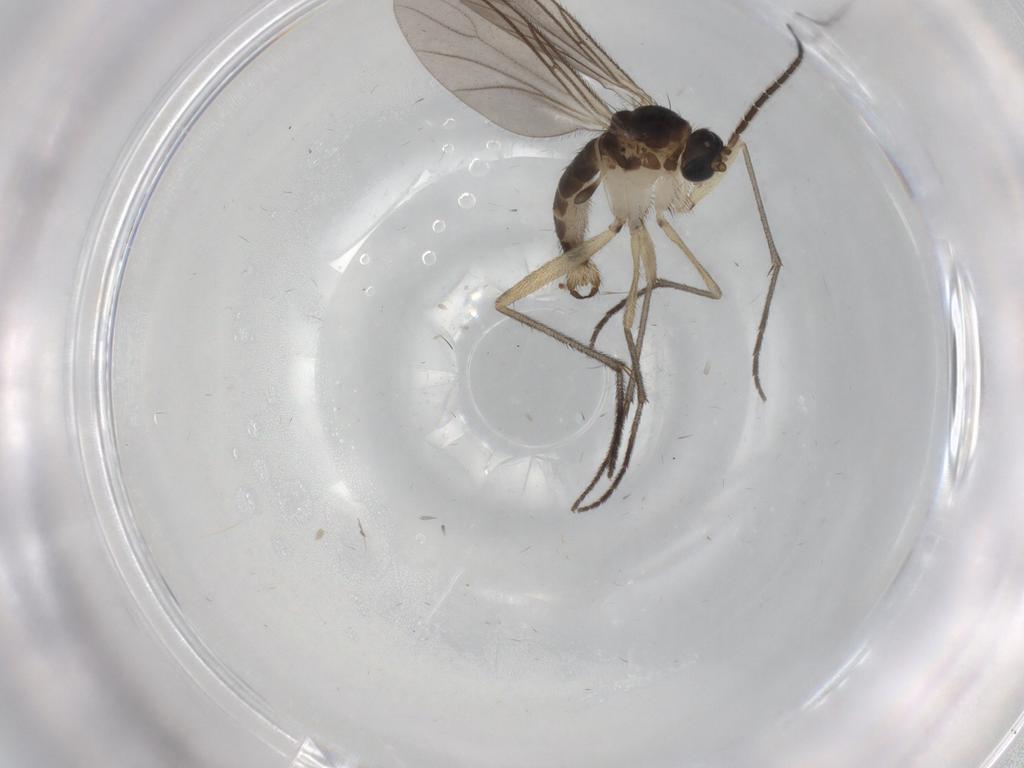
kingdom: Animalia
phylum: Arthropoda
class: Insecta
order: Diptera
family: Sciaridae
